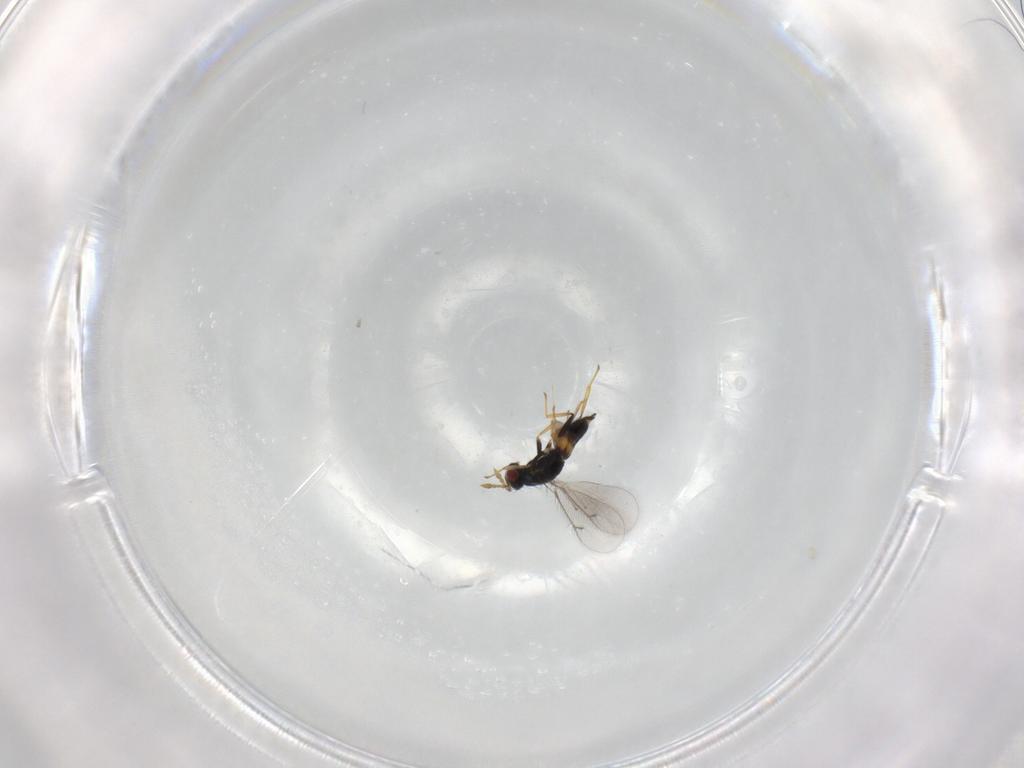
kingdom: Animalia
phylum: Arthropoda
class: Insecta
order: Hymenoptera
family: Eulophidae
